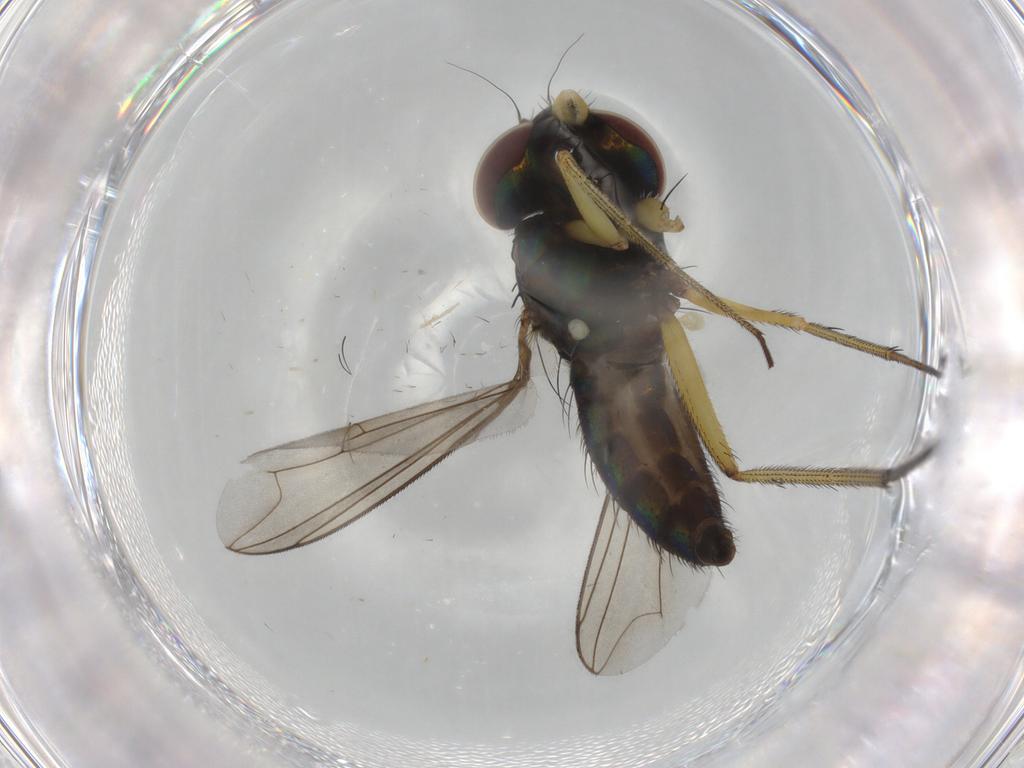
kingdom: Animalia
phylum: Arthropoda
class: Insecta
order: Diptera
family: Dolichopodidae
